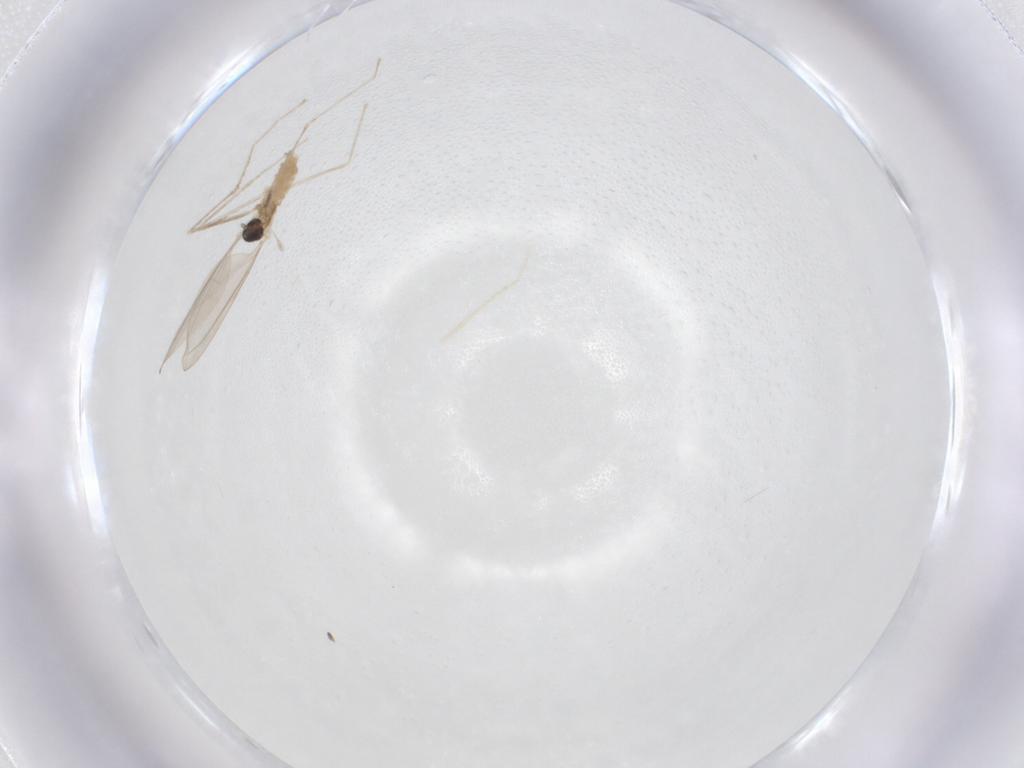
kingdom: Animalia
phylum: Arthropoda
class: Insecta
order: Diptera
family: Cecidomyiidae
